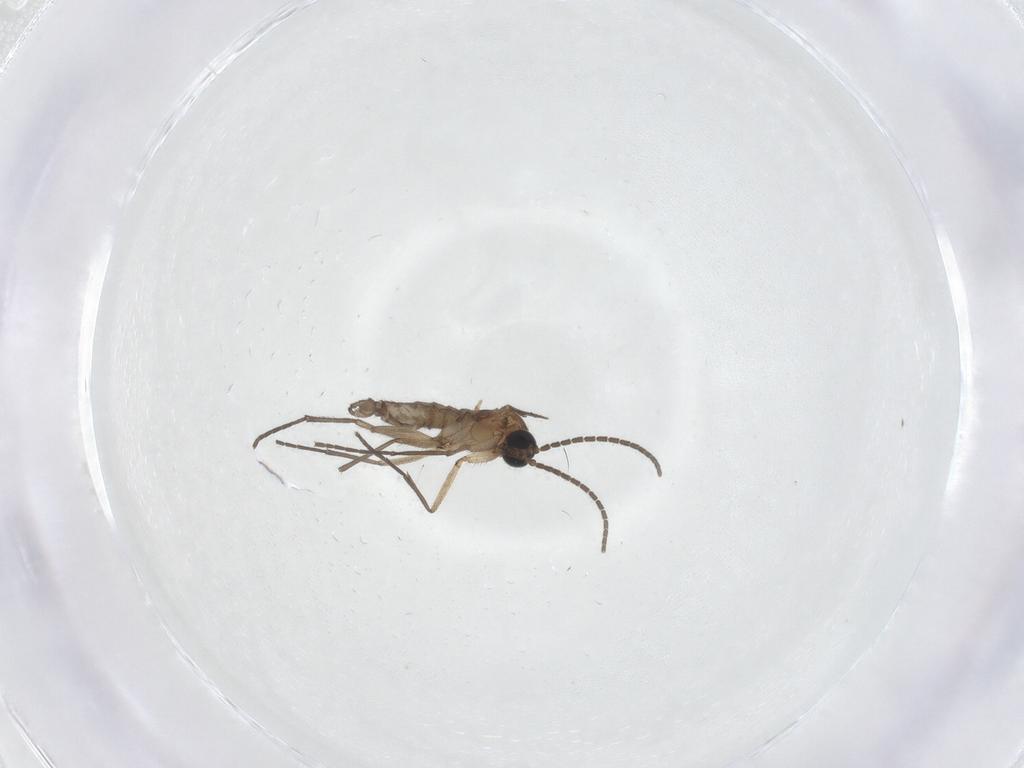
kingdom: Animalia
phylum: Arthropoda
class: Insecta
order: Diptera
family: Sciaridae
